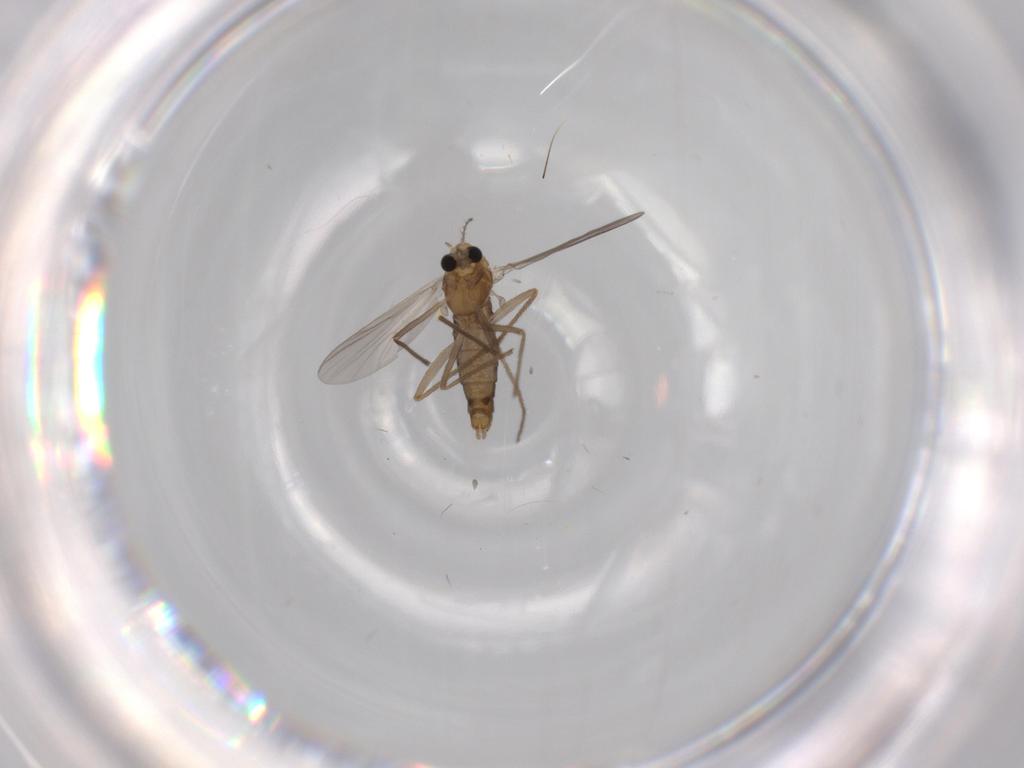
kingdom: Animalia
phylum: Arthropoda
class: Insecta
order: Diptera
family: Chironomidae
